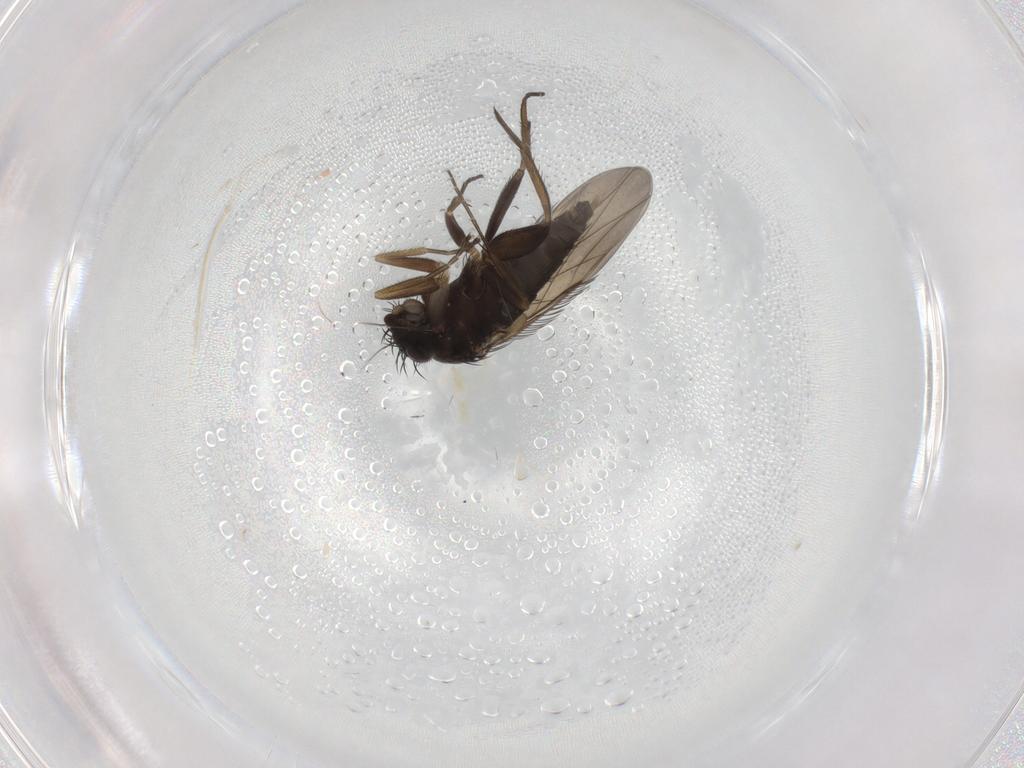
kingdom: Animalia
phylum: Arthropoda
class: Insecta
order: Diptera
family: Phoridae
